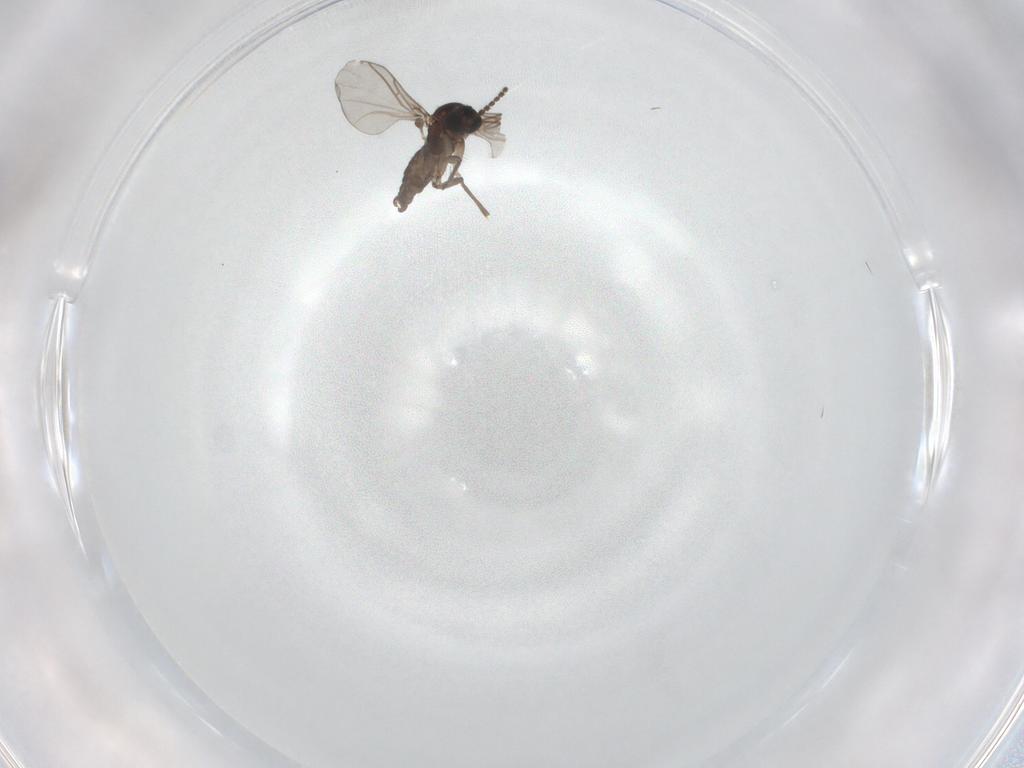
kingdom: Animalia
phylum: Arthropoda
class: Insecta
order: Diptera
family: Sciaridae
